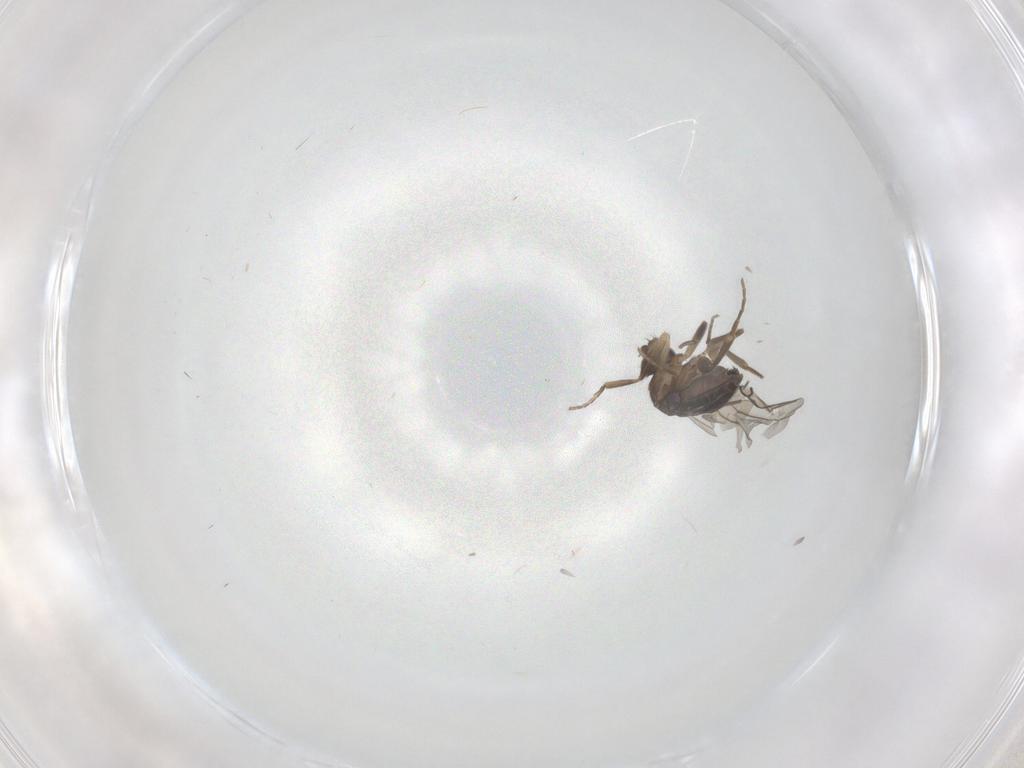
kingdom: Animalia
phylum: Arthropoda
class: Insecta
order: Diptera
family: Phoridae
